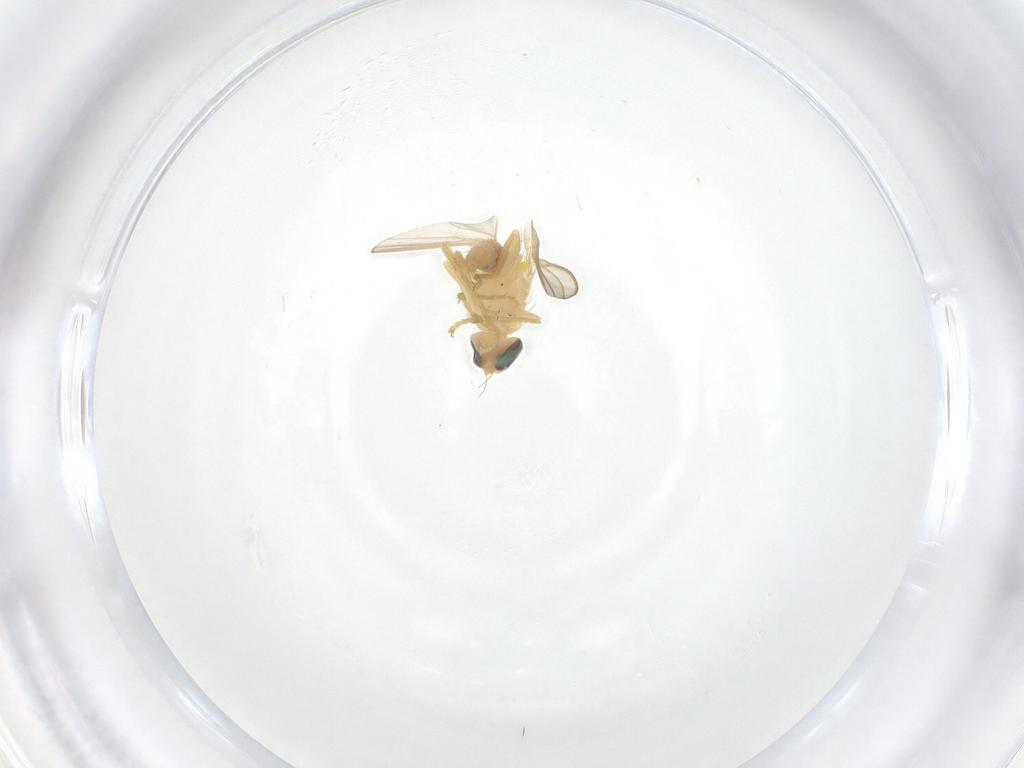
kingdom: Animalia
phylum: Arthropoda
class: Insecta
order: Diptera
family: Chyromyidae
